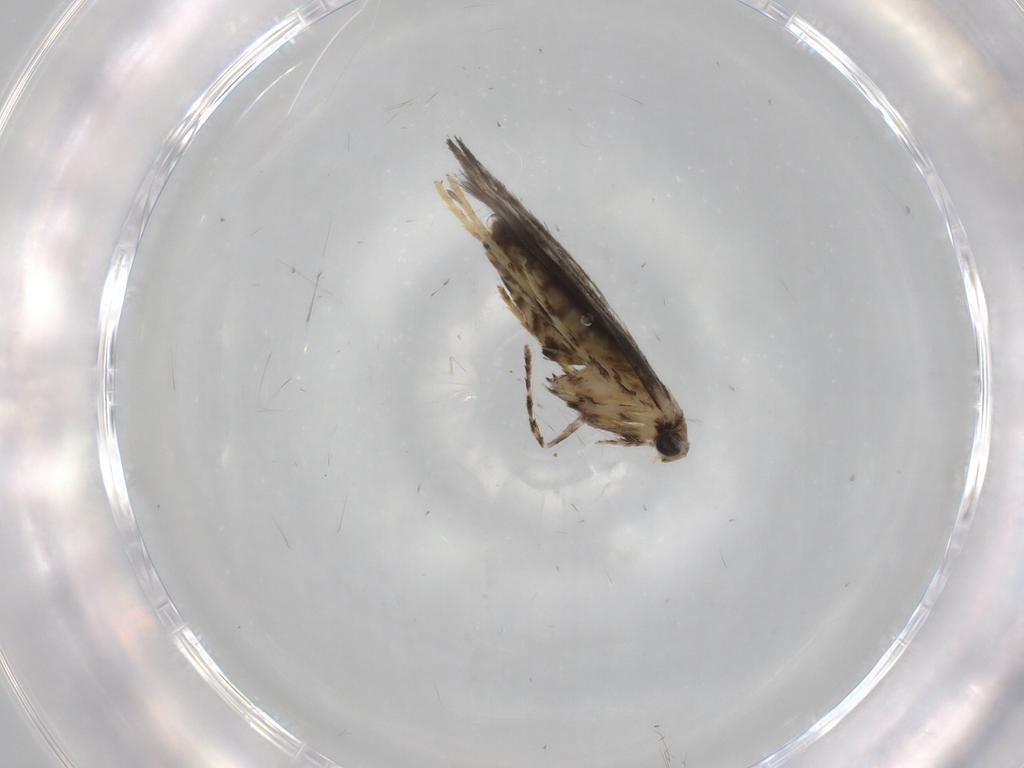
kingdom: Animalia
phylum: Arthropoda
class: Insecta
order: Lepidoptera
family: Gracillariidae
